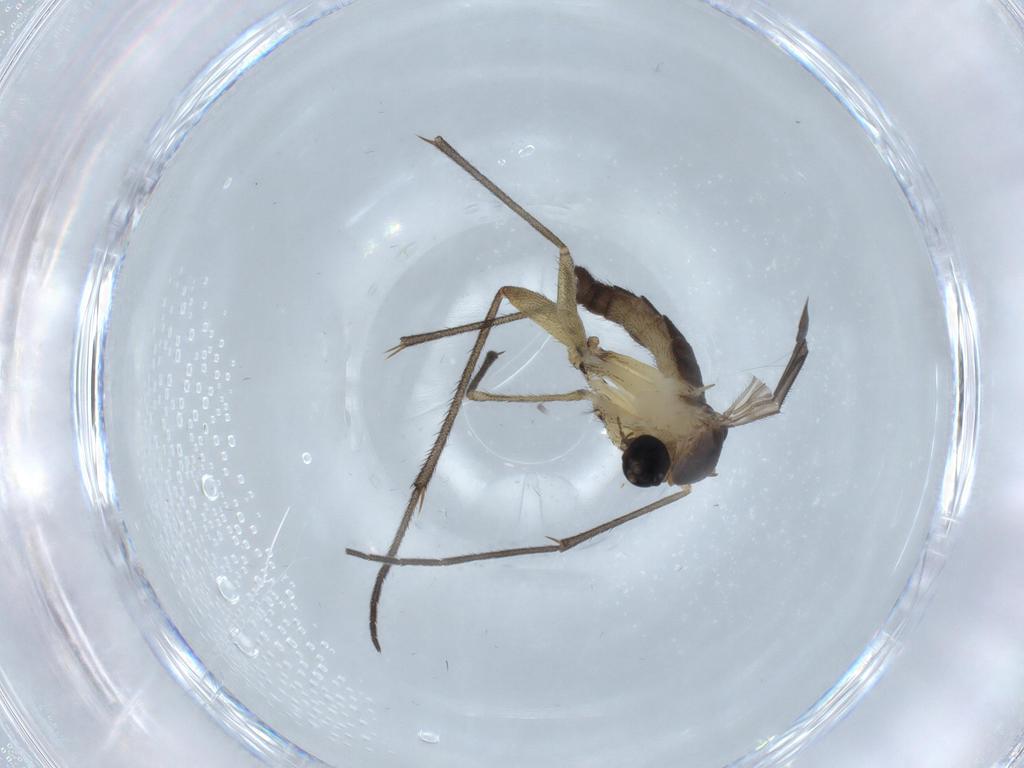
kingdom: Animalia
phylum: Arthropoda
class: Insecta
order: Diptera
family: Sciaridae
